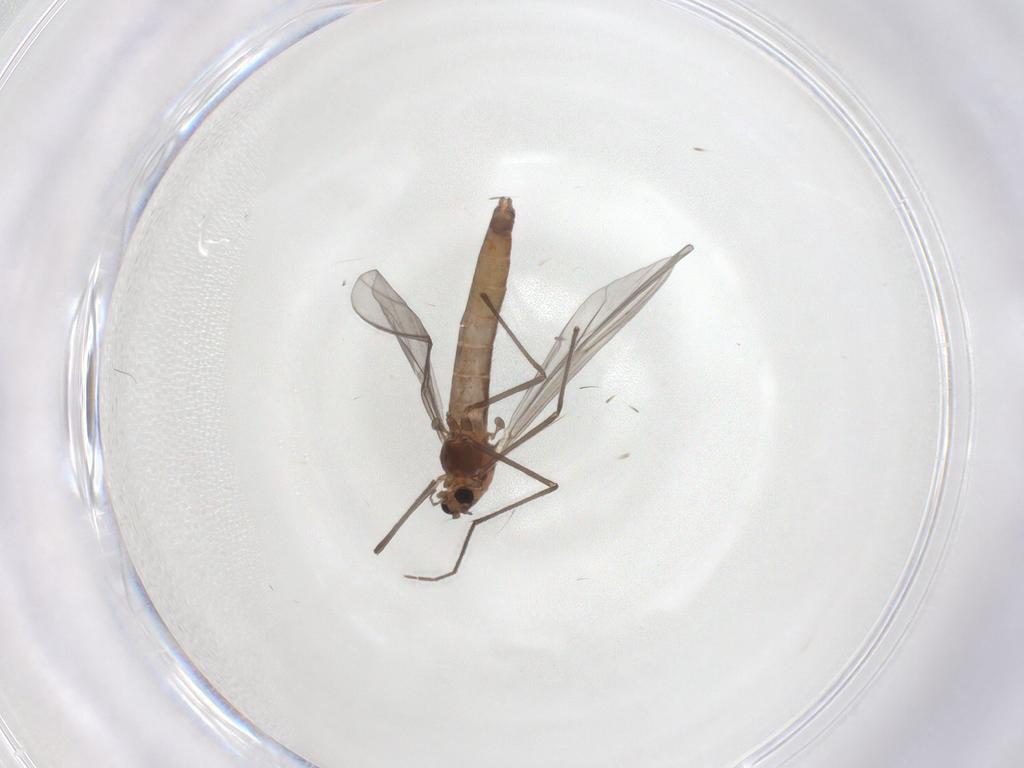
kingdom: Animalia
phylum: Arthropoda
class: Insecta
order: Diptera
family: Chironomidae
